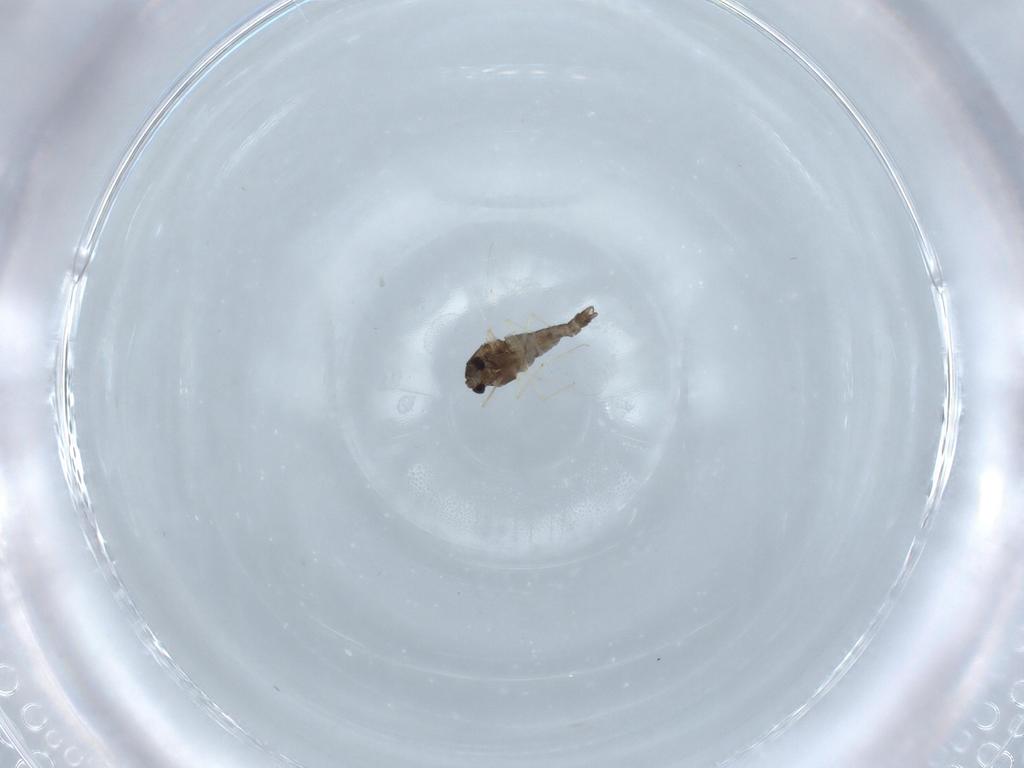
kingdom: Animalia
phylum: Arthropoda
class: Insecta
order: Diptera
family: Chironomidae
